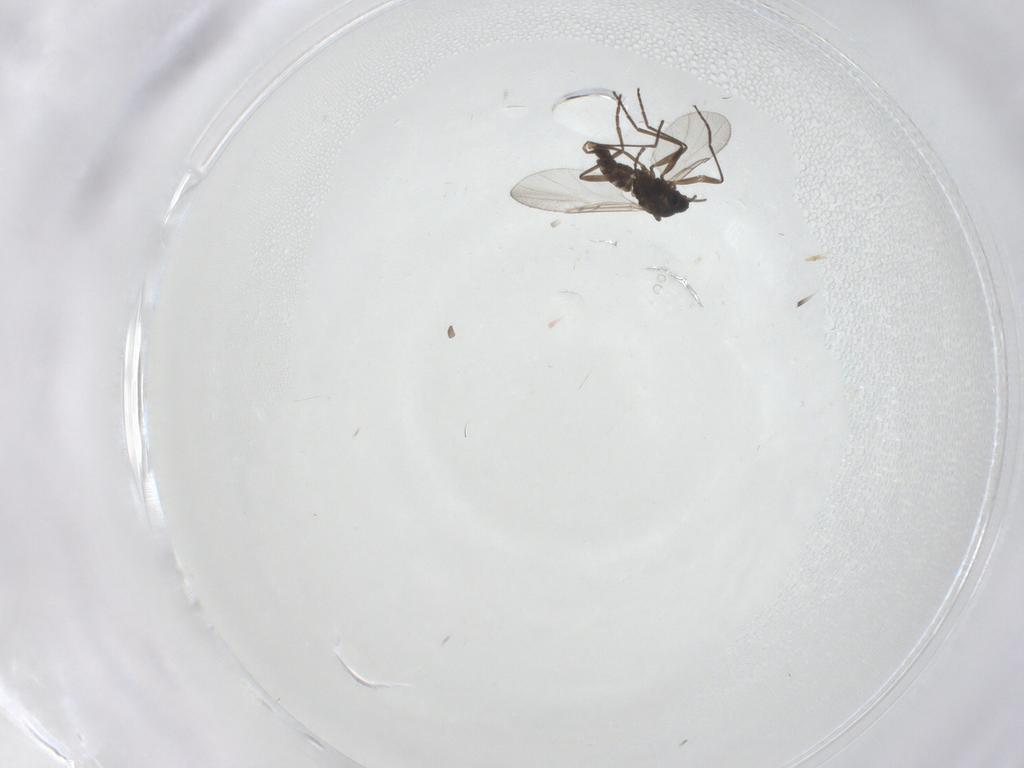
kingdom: Animalia
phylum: Arthropoda
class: Insecta
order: Diptera
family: Cecidomyiidae
